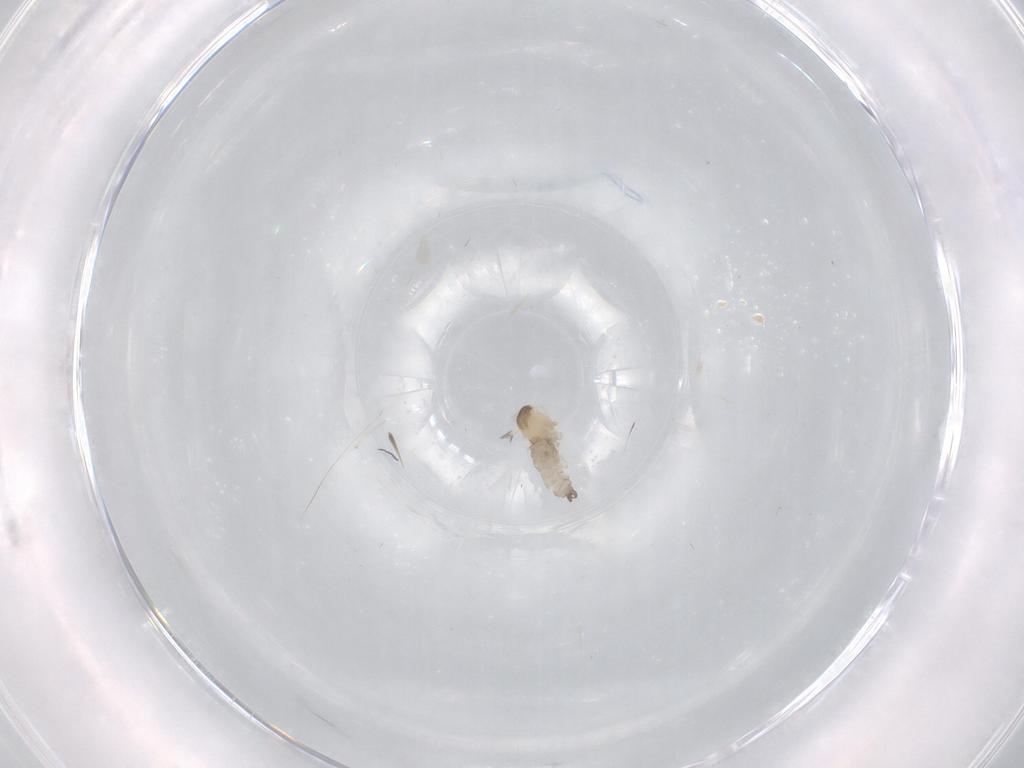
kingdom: Animalia
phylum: Arthropoda
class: Insecta
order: Diptera
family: Cecidomyiidae
